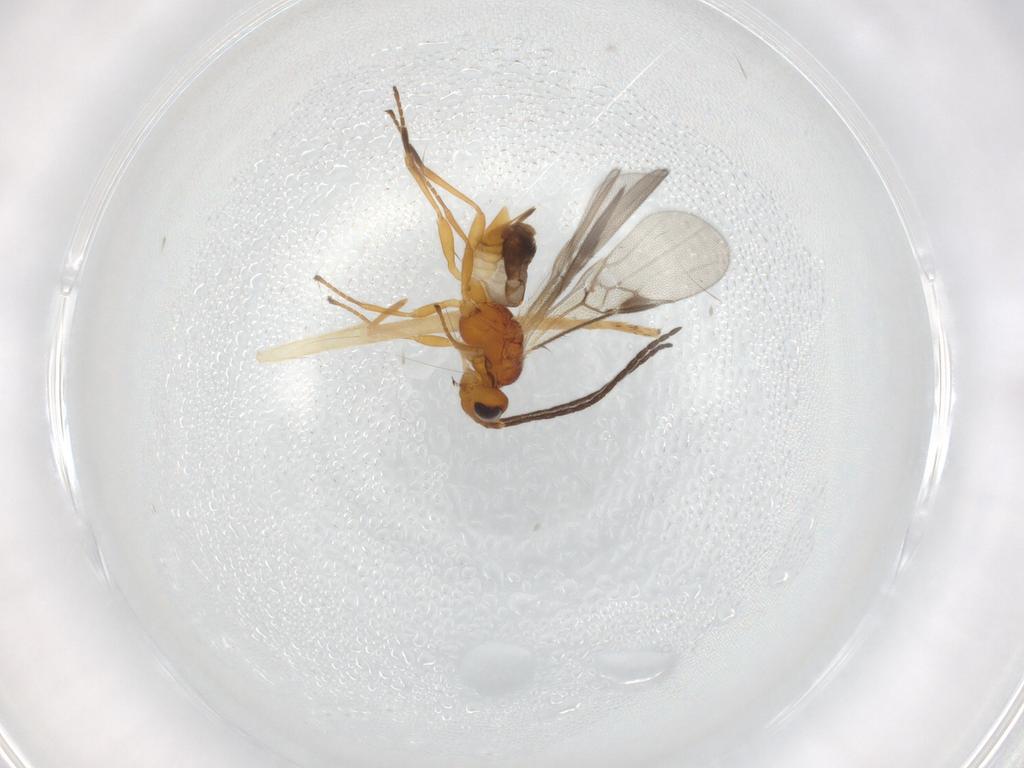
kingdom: Animalia
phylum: Arthropoda
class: Insecta
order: Hymenoptera
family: Braconidae
